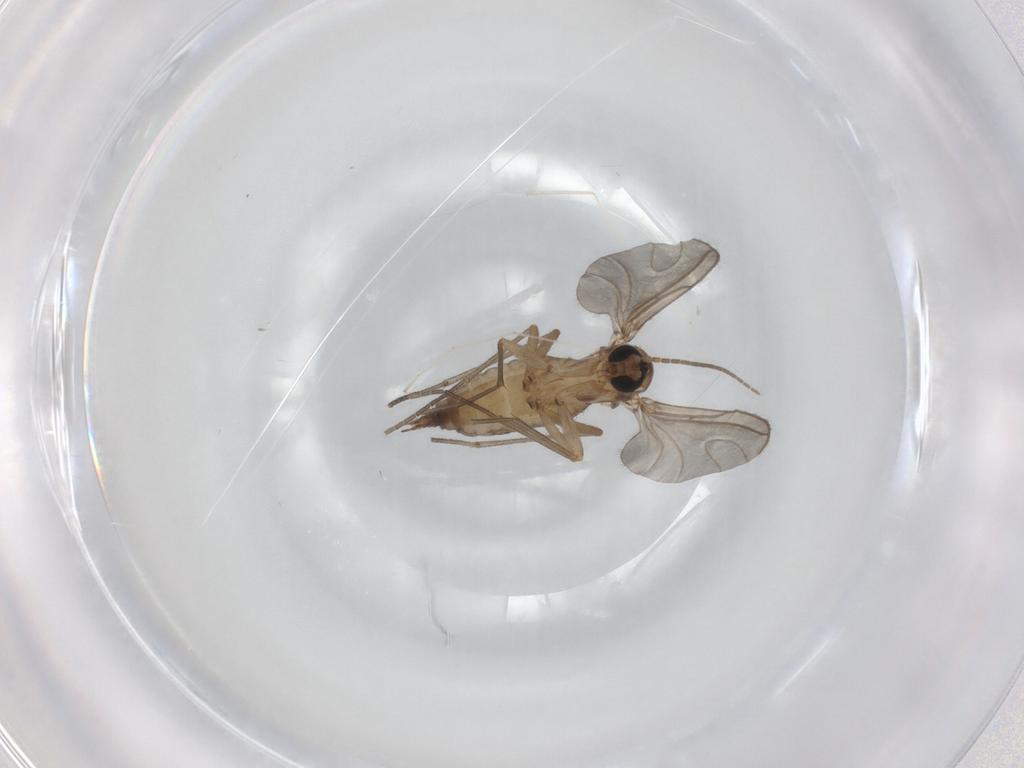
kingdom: Animalia
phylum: Arthropoda
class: Insecta
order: Diptera
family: Sciaridae
